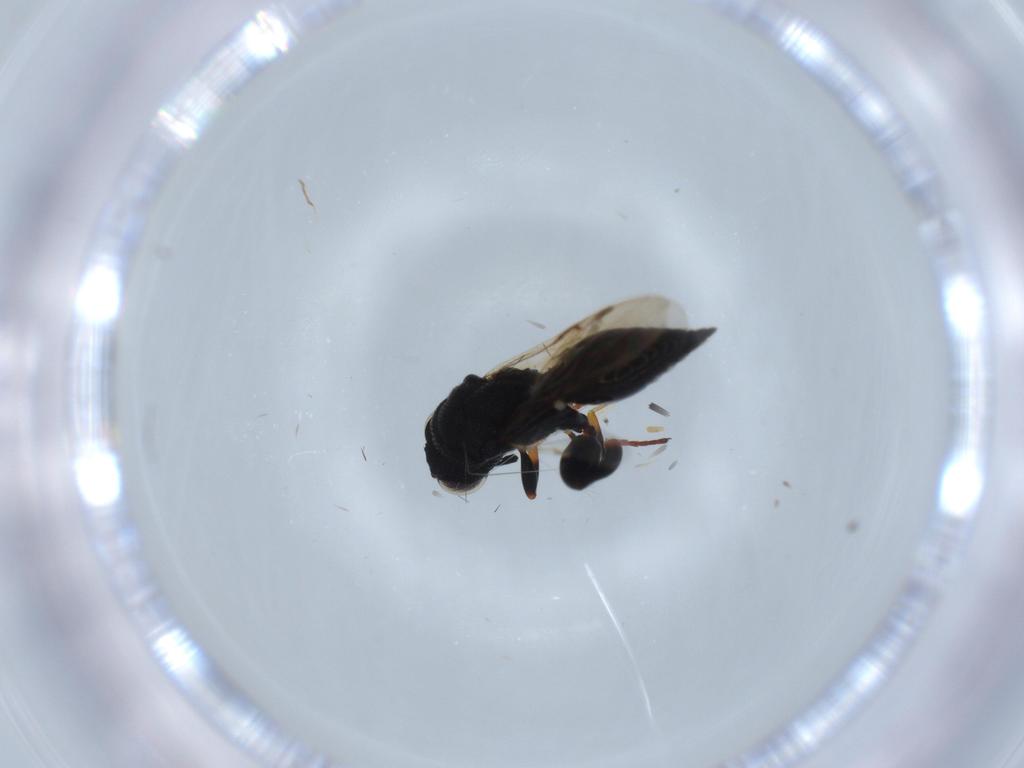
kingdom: Animalia
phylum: Arthropoda
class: Insecta
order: Hymenoptera
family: Formicidae
